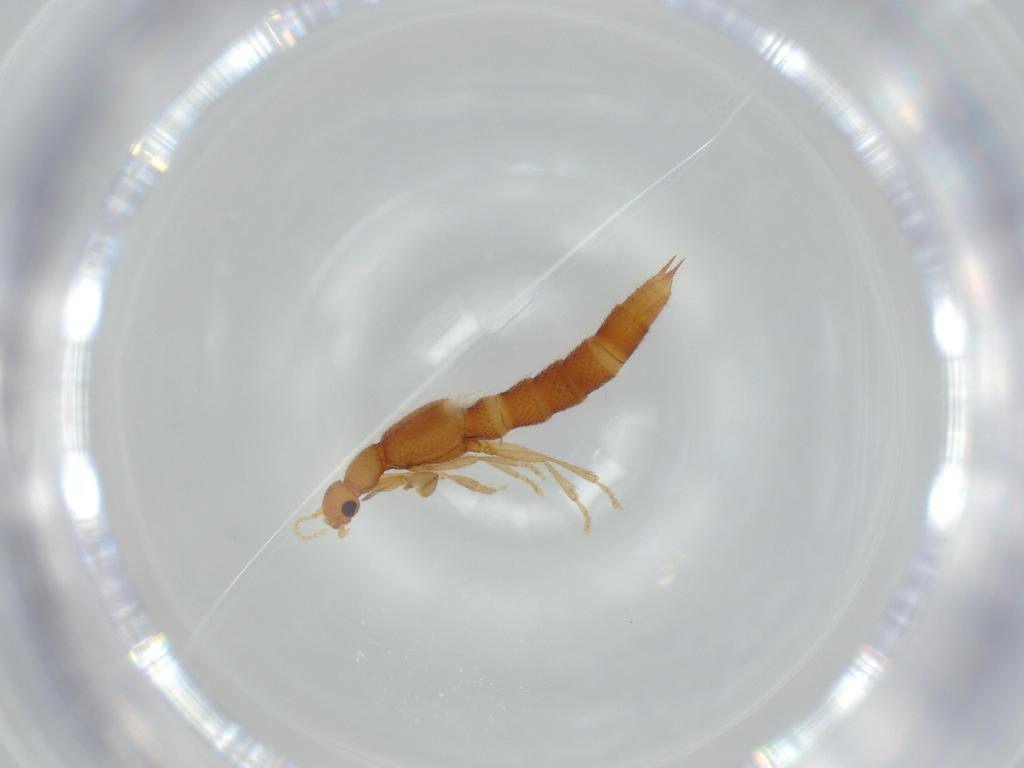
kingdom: Animalia
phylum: Arthropoda
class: Insecta
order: Coleoptera
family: Staphylinidae
